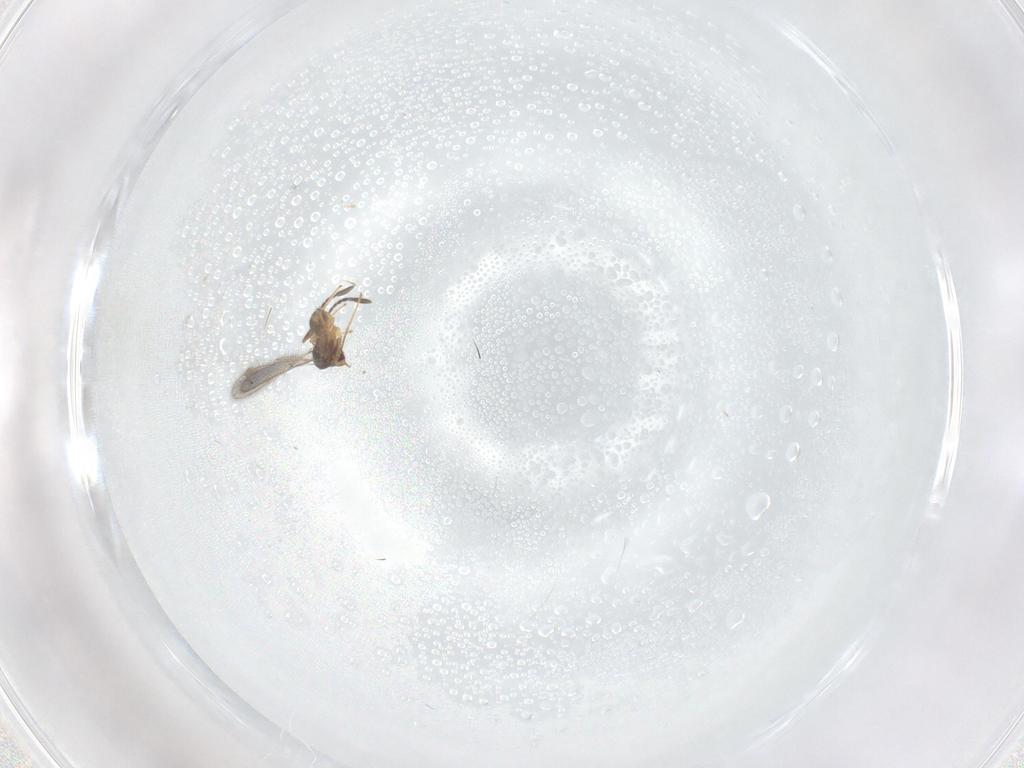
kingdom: Animalia
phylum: Arthropoda
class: Insecta
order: Hymenoptera
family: Mymaridae
